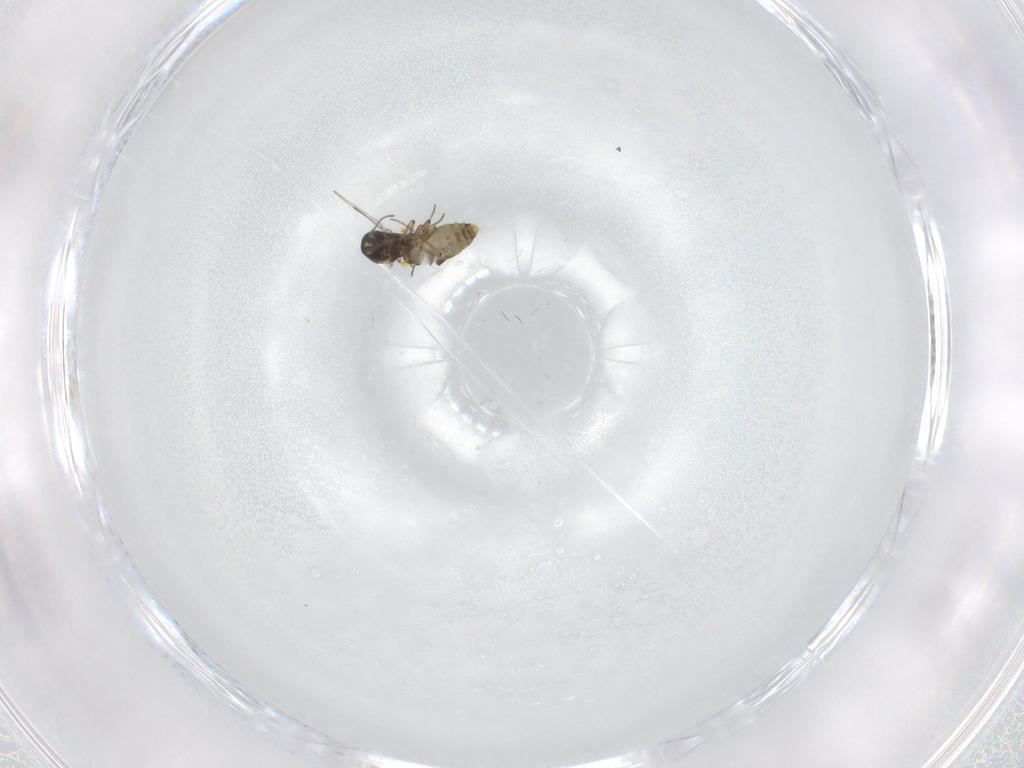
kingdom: Animalia
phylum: Arthropoda
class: Insecta
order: Diptera
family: Ceratopogonidae
